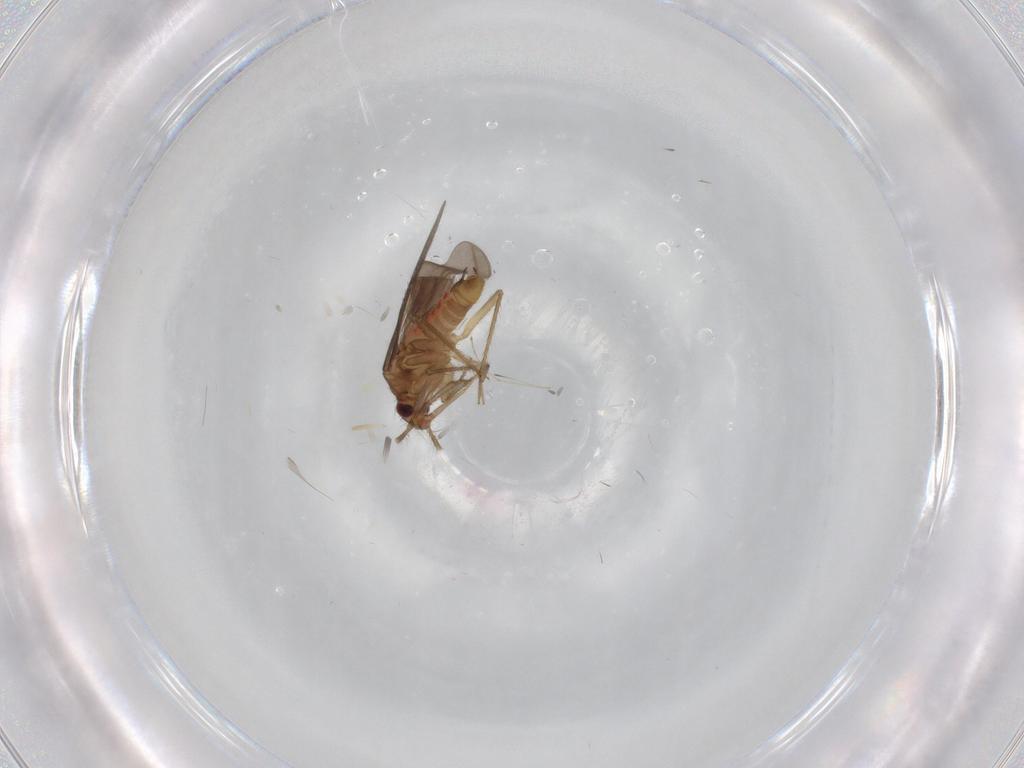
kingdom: Animalia
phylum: Arthropoda
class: Insecta
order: Hemiptera
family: Ceratocombidae
